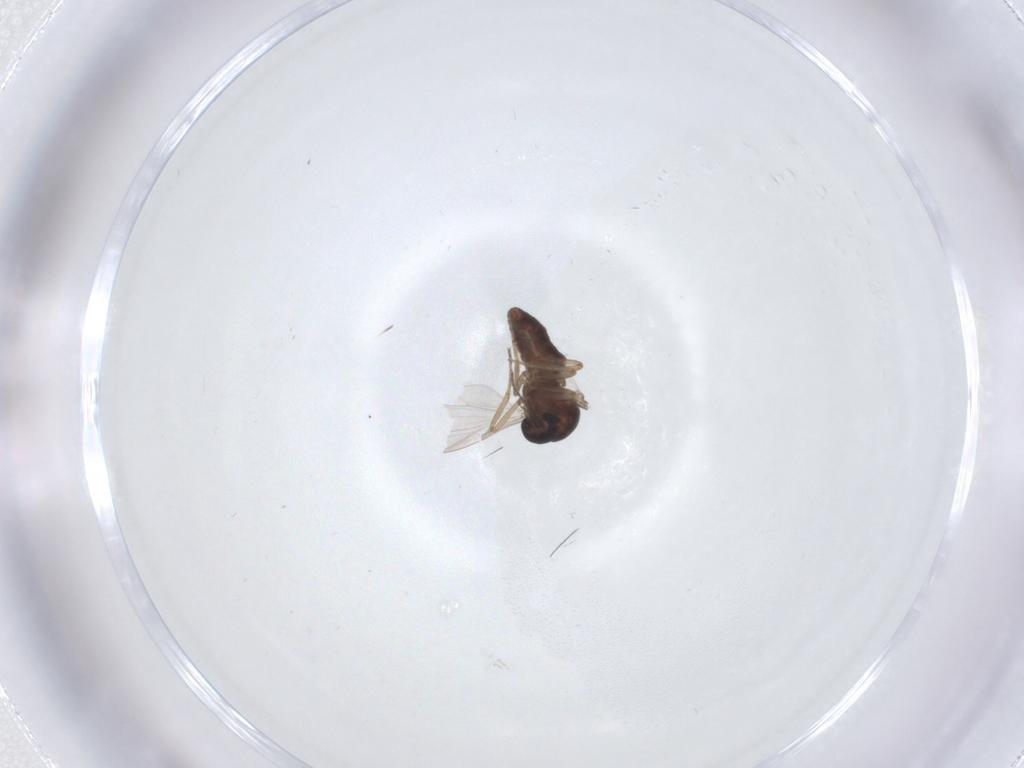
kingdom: Animalia
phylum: Arthropoda
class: Insecta
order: Diptera
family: Ceratopogonidae
